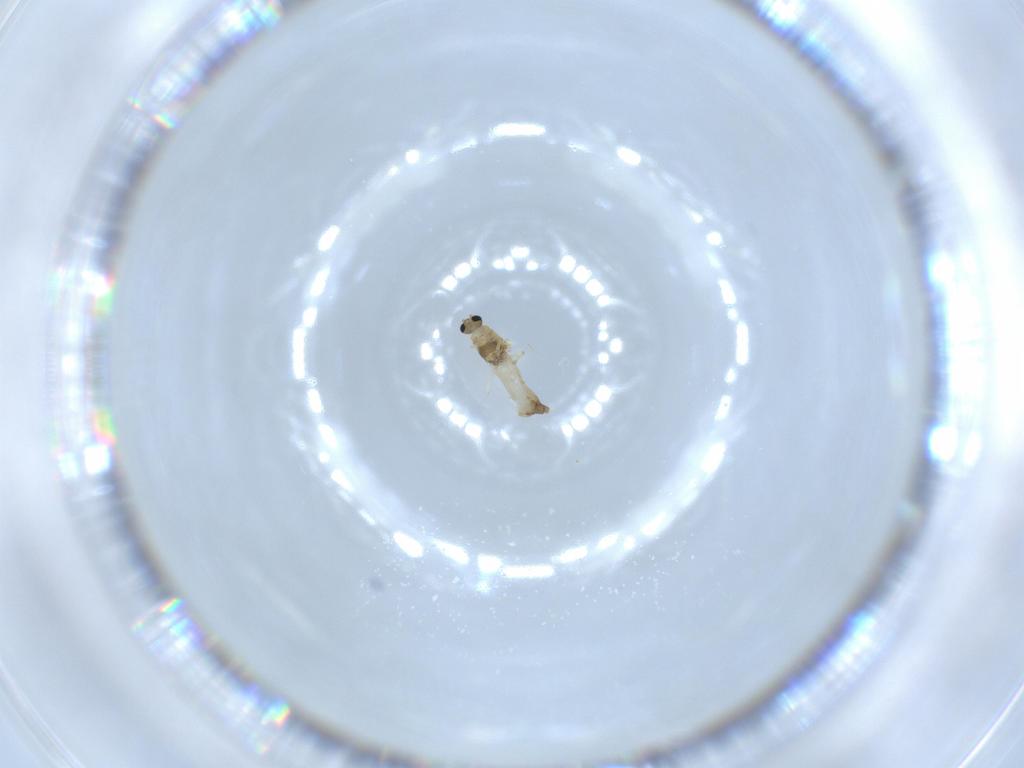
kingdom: Animalia
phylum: Arthropoda
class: Insecta
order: Diptera
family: Chironomidae
